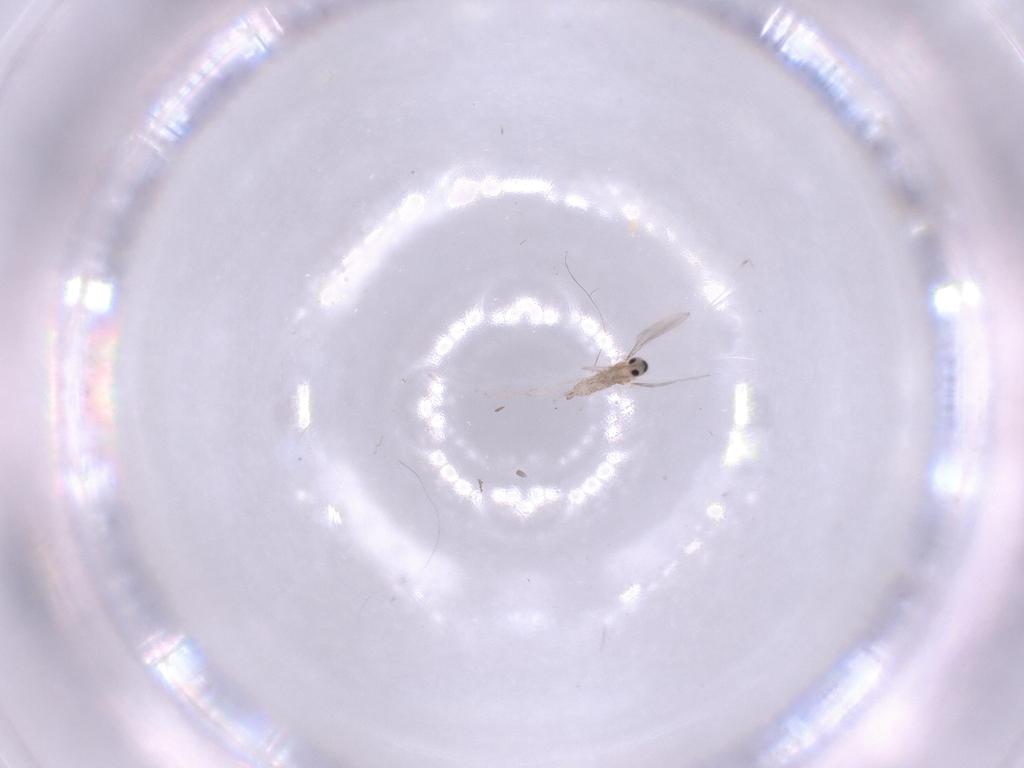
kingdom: Animalia
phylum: Arthropoda
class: Insecta
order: Diptera
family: Cecidomyiidae
